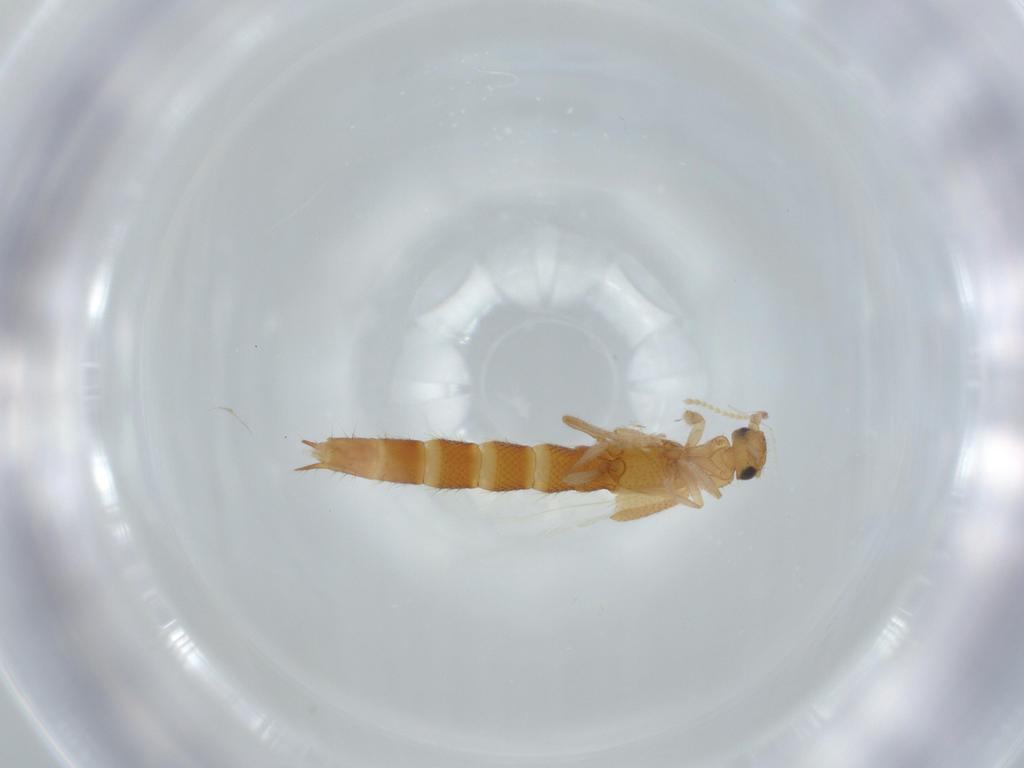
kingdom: Animalia
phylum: Arthropoda
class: Insecta
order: Coleoptera
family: Staphylinidae
